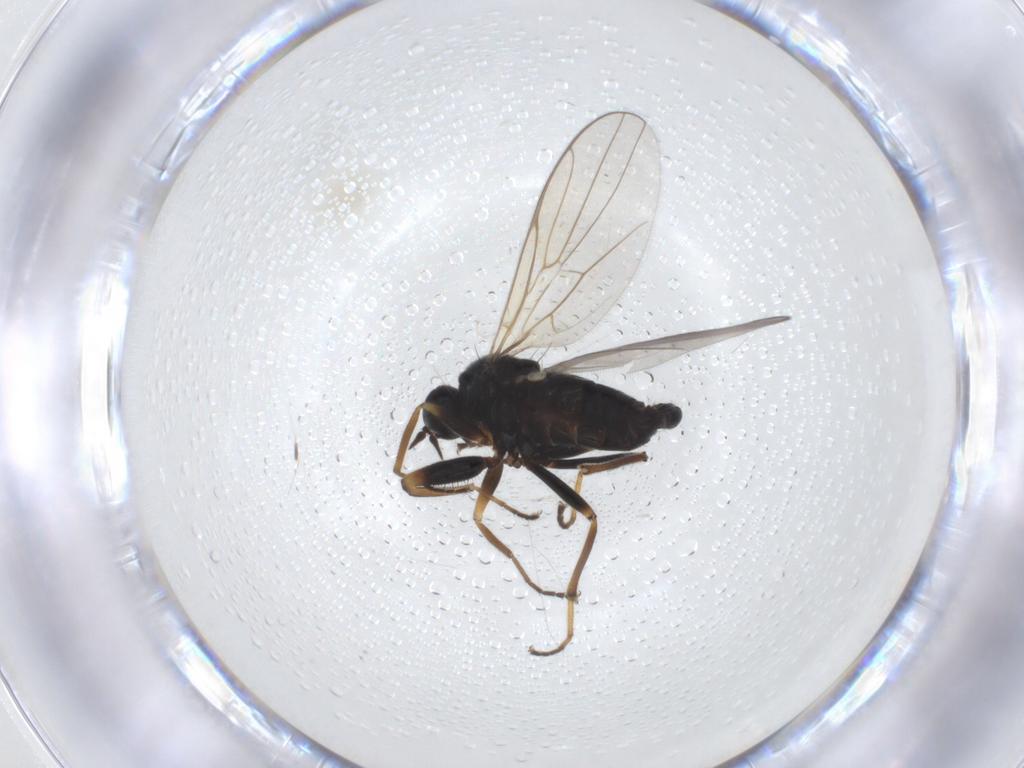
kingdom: Animalia
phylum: Arthropoda
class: Insecta
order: Diptera
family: Chironomidae
